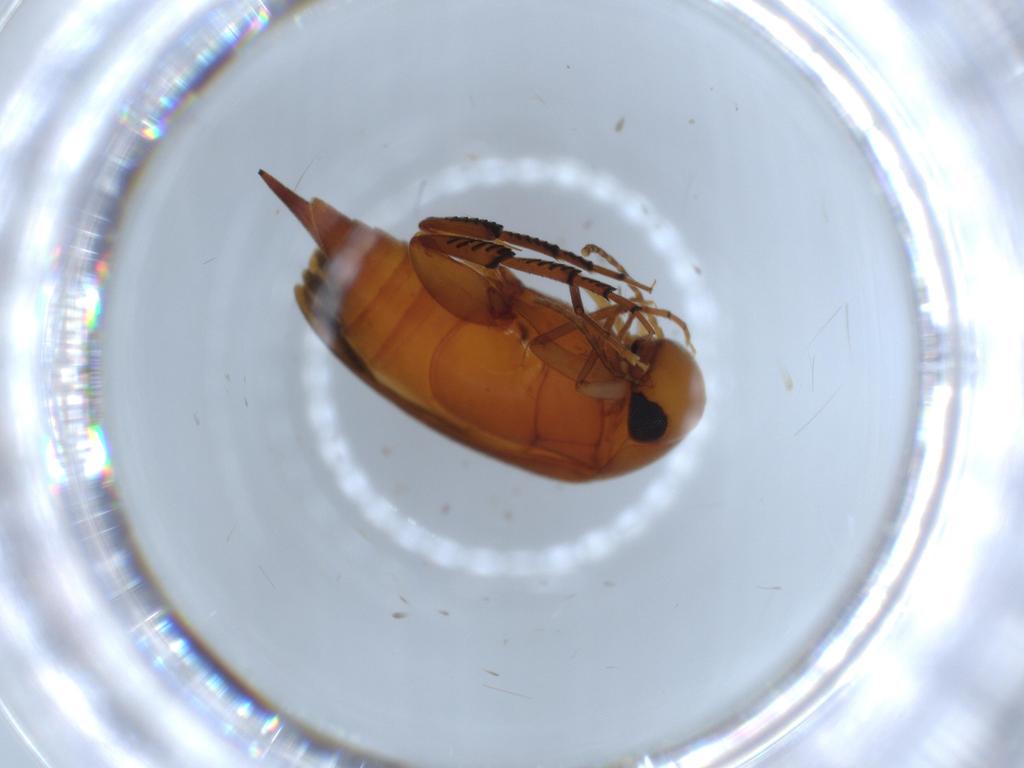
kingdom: Animalia
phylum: Arthropoda
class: Insecta
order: Coleoptera
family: Mordellidae
